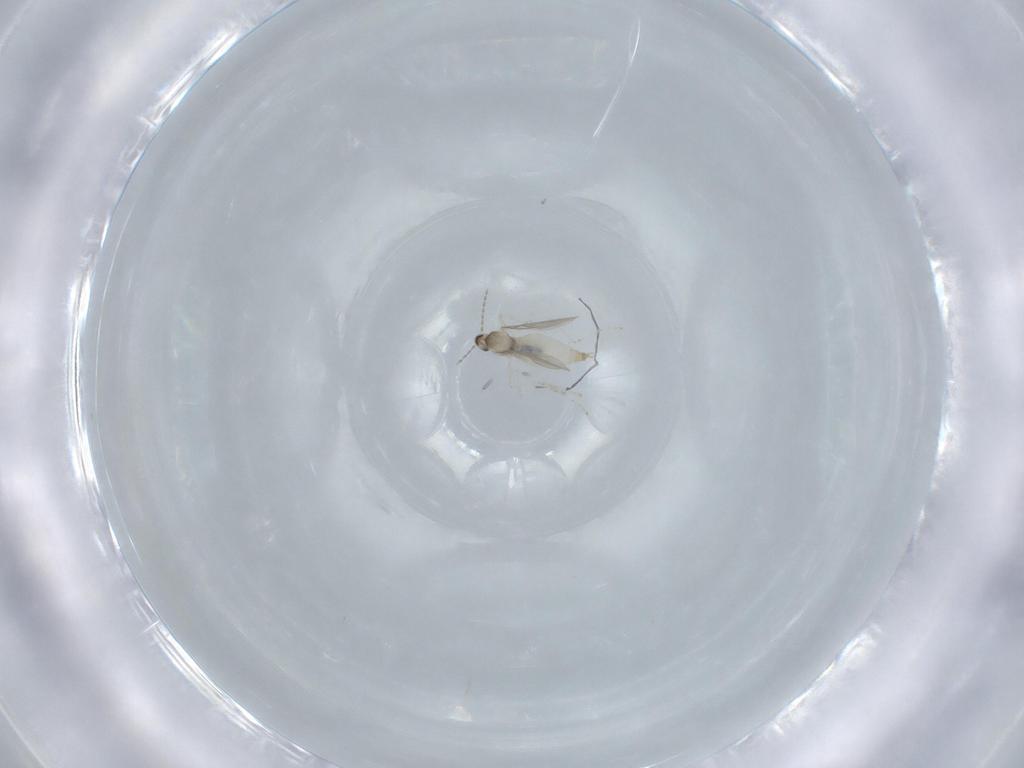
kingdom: Animalia
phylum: Arthropoda
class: Insecta
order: Diptera
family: Cecidomyiidae
